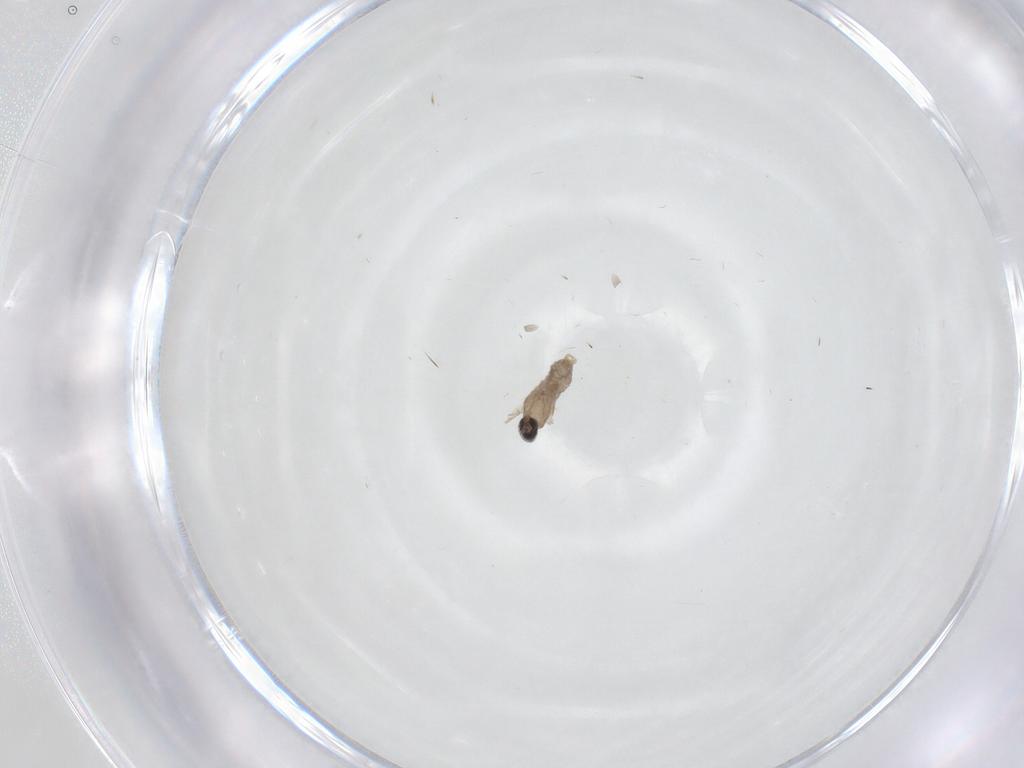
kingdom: Animalia
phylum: Arthropoda
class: Insecta
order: Diptera
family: Cecidomyiidae
